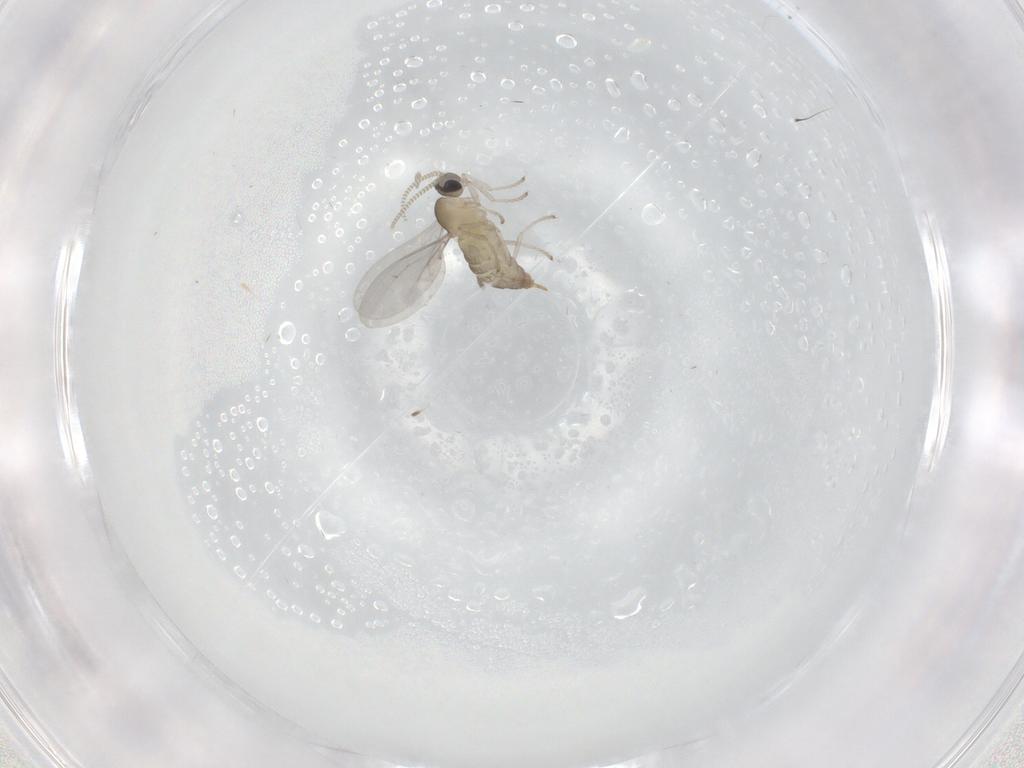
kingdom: Animalia
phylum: Arthropoda
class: Insecta
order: Diptera
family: Cecidomyiidae
